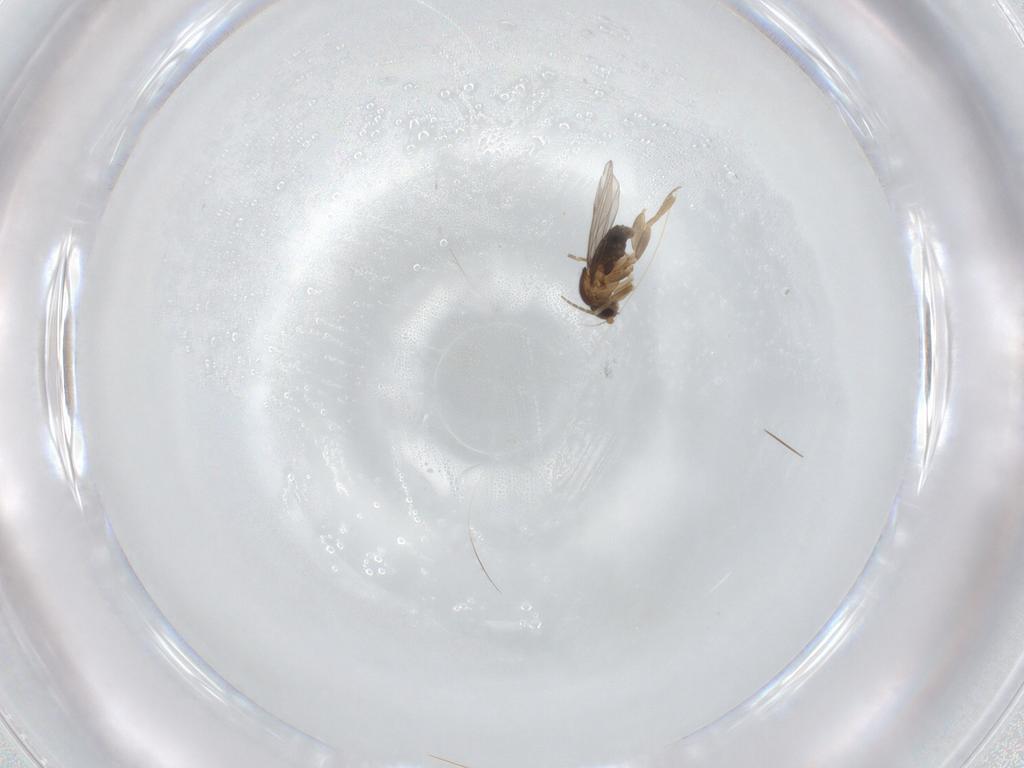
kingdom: Animalia
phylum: Arthropoda
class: Insecta
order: Diptera
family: Phoridae
